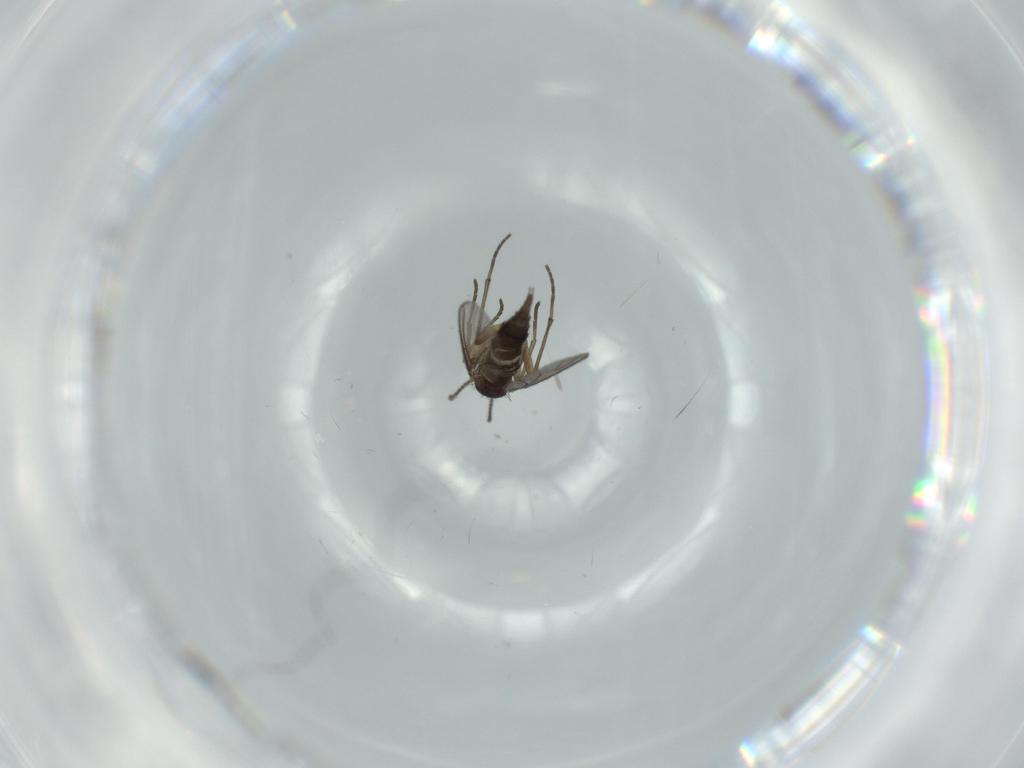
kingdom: Animalia
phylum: Arthropoda
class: Insecta
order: Diptera
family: Sciaridae
